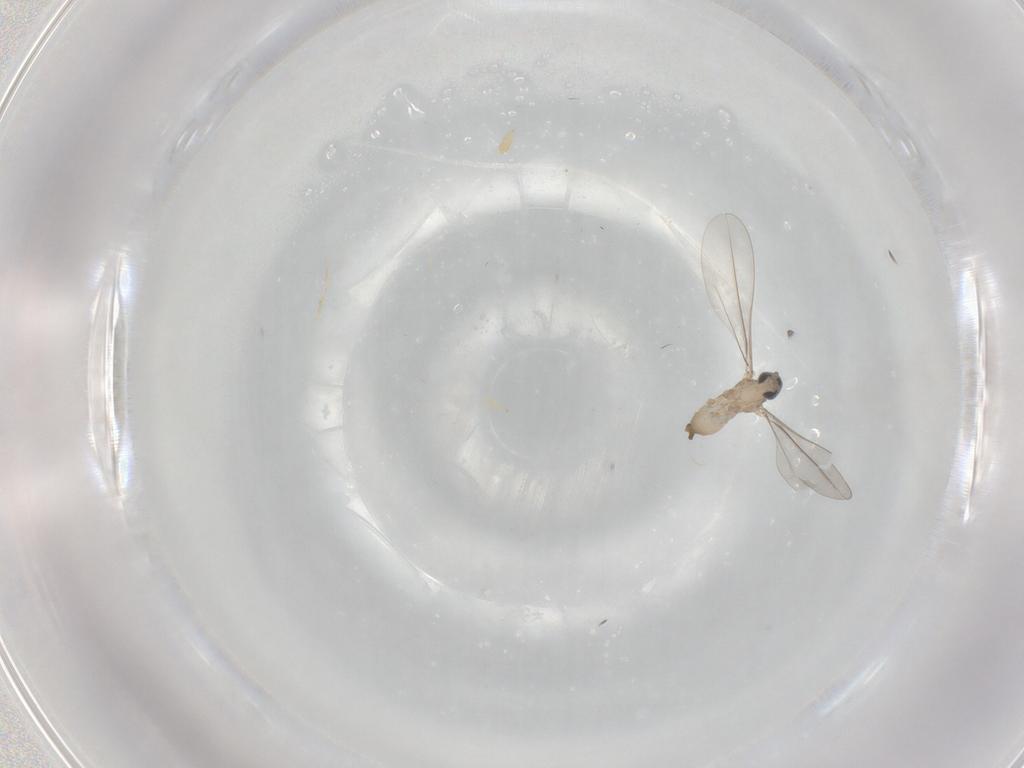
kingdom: Animalia
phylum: Arthropoda
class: Insecta
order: Diptera
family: Cecidomyiidae
